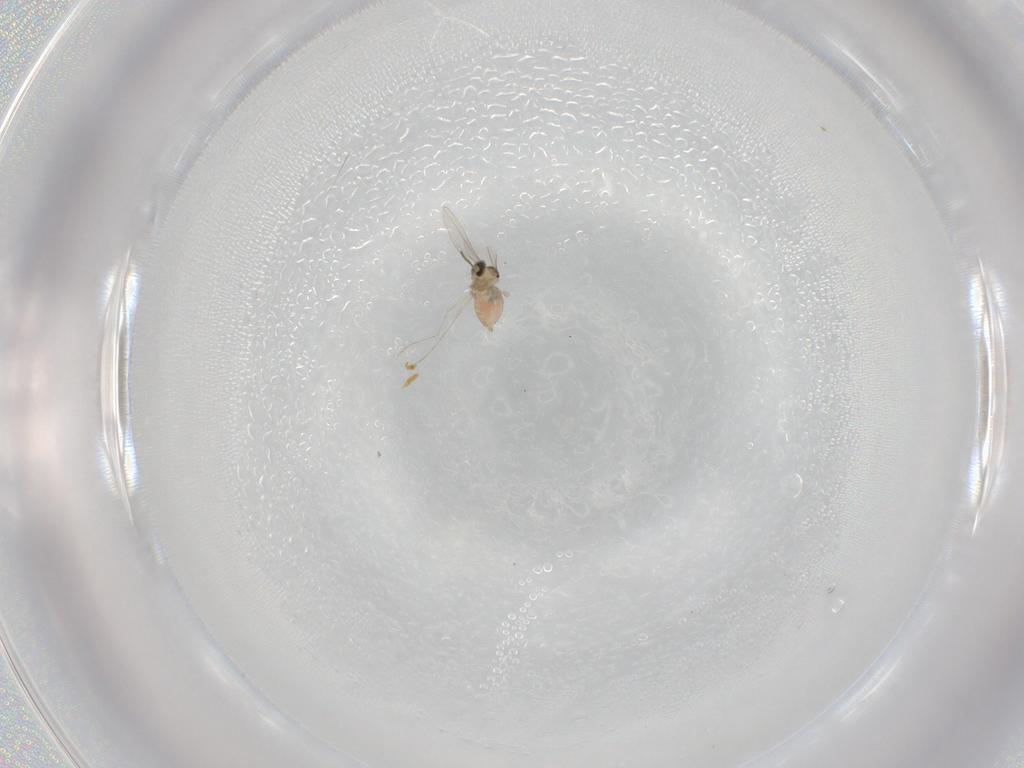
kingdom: Animalia
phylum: Arthropoda
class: Insecta
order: Diptera
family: Cecidomyiidae
